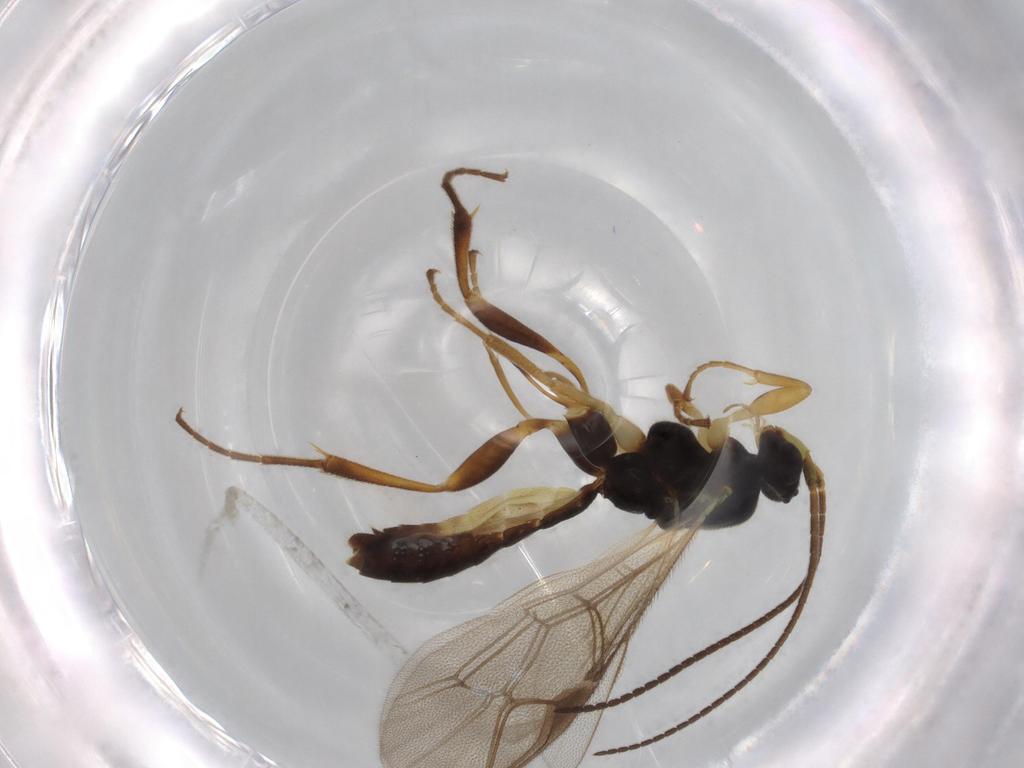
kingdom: Animalia
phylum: Arthropoda
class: Insecta
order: Hymenoptera
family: Ichneumonidae
